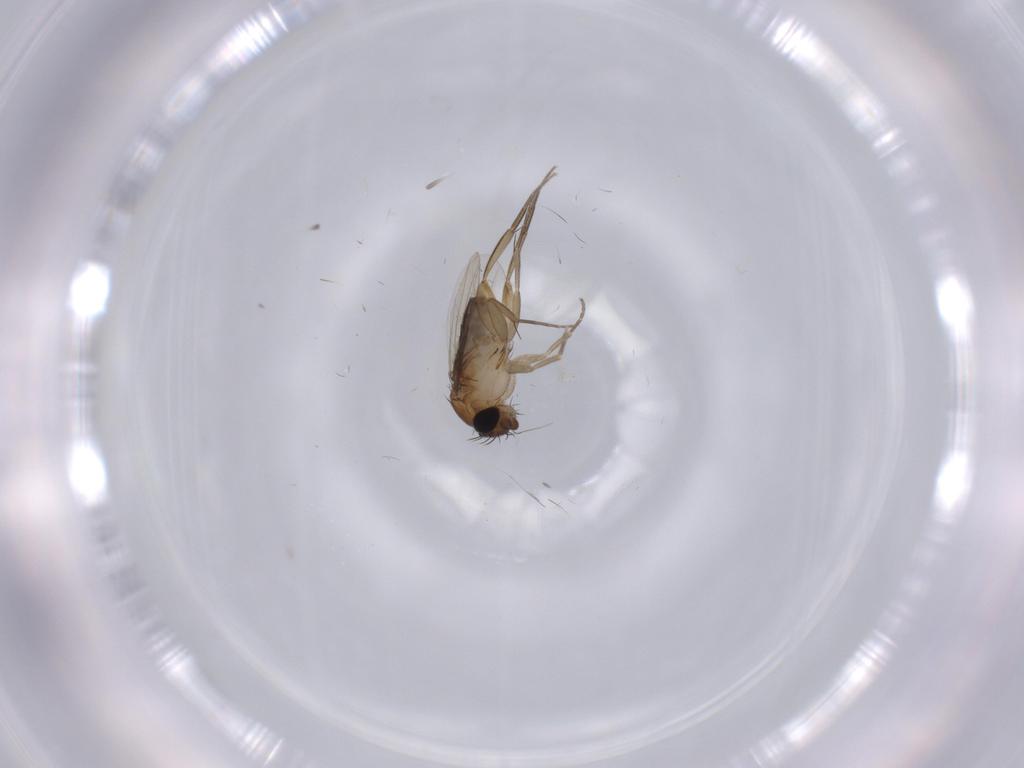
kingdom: Animalia
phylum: Arthropoda
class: Insecta
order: Diptera
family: Phoridae
